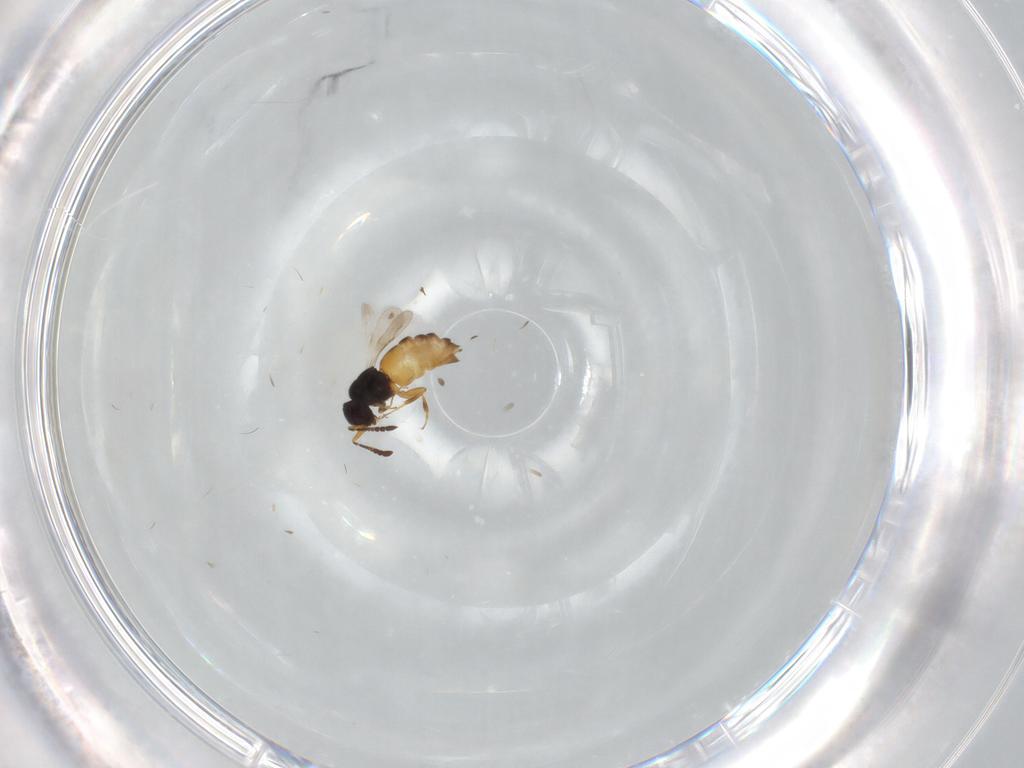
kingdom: Animalia
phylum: Arthropoda
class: Insecta
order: Hymenoptera
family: Ceraphronidae
